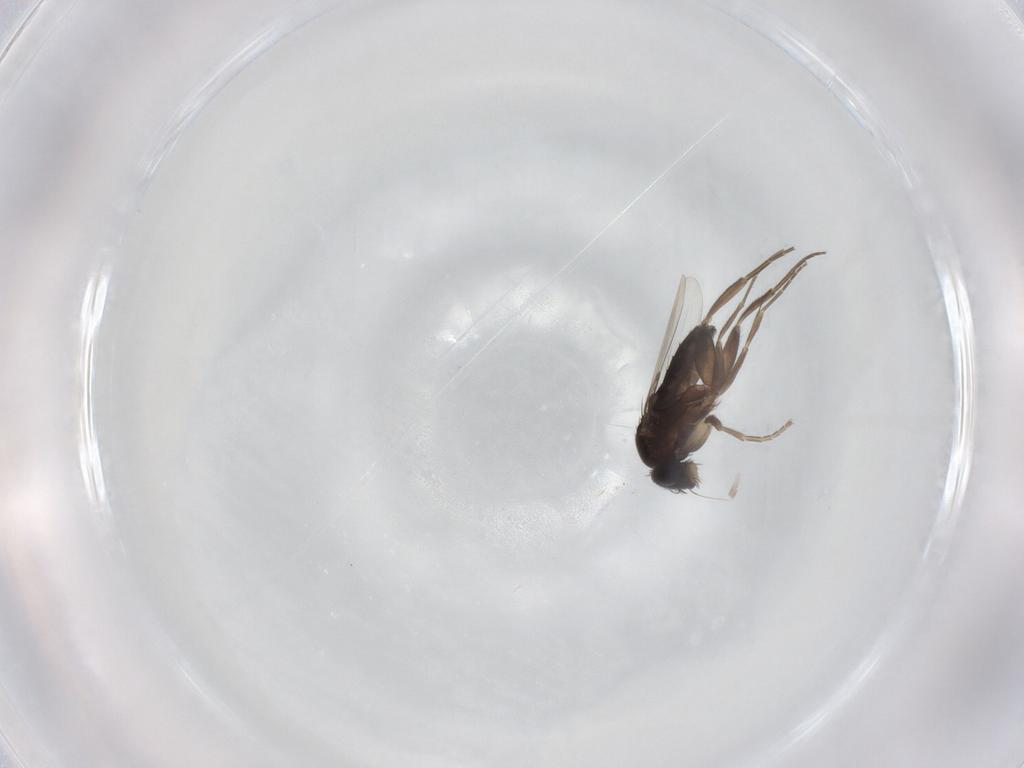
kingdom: Animalia
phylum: Arthropoda
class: Insecta
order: Diptera
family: Phoridae
